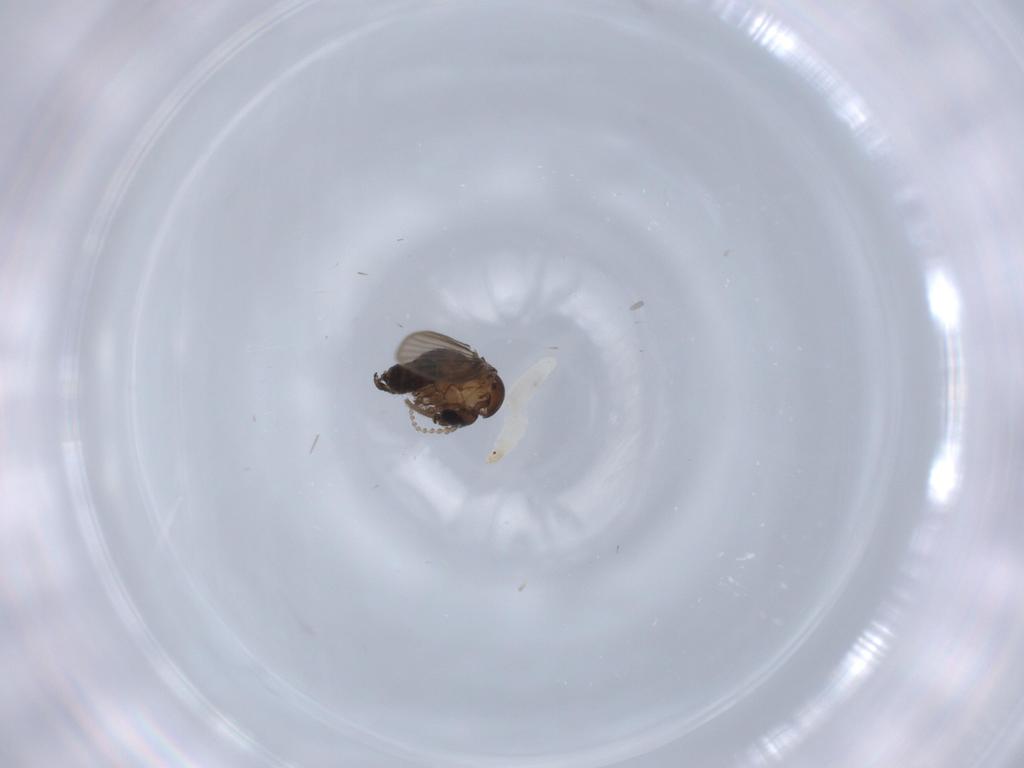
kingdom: Animalia
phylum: Arthropoda
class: Insecta
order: Diptera
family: Psychodidae
